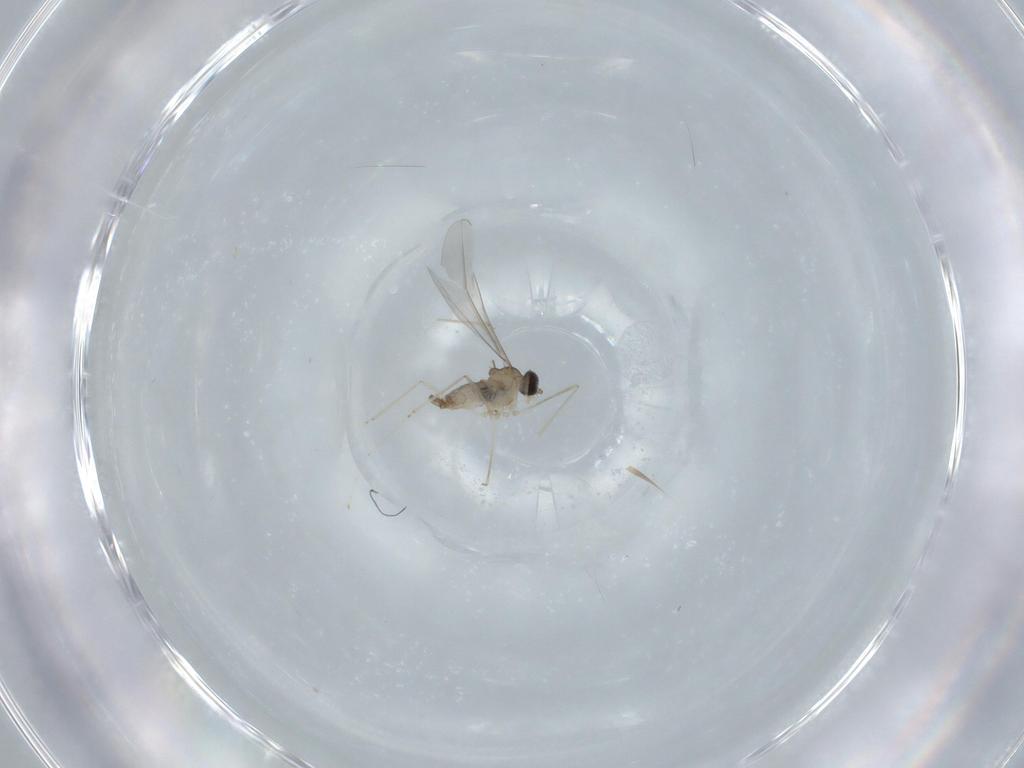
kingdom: Animalia
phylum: Arthropoda
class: Insecta
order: Diptera
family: Cecidomyiidae
